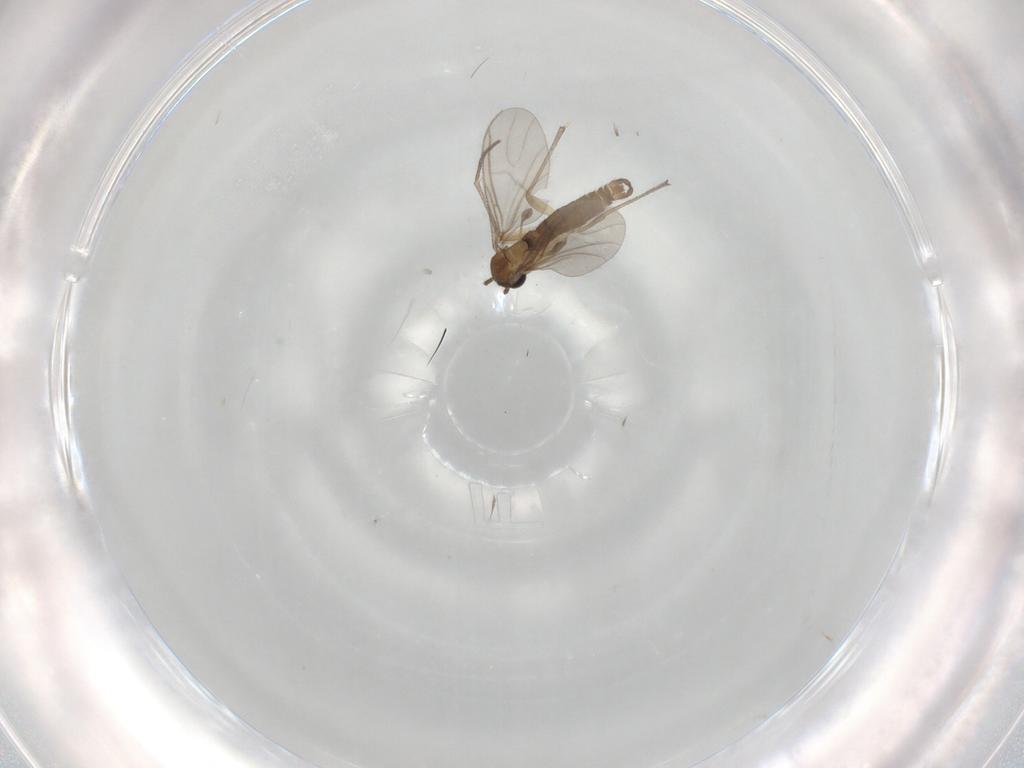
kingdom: Animalia
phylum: Arthropoda
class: Insecta
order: Diptera
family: Sciaridae
